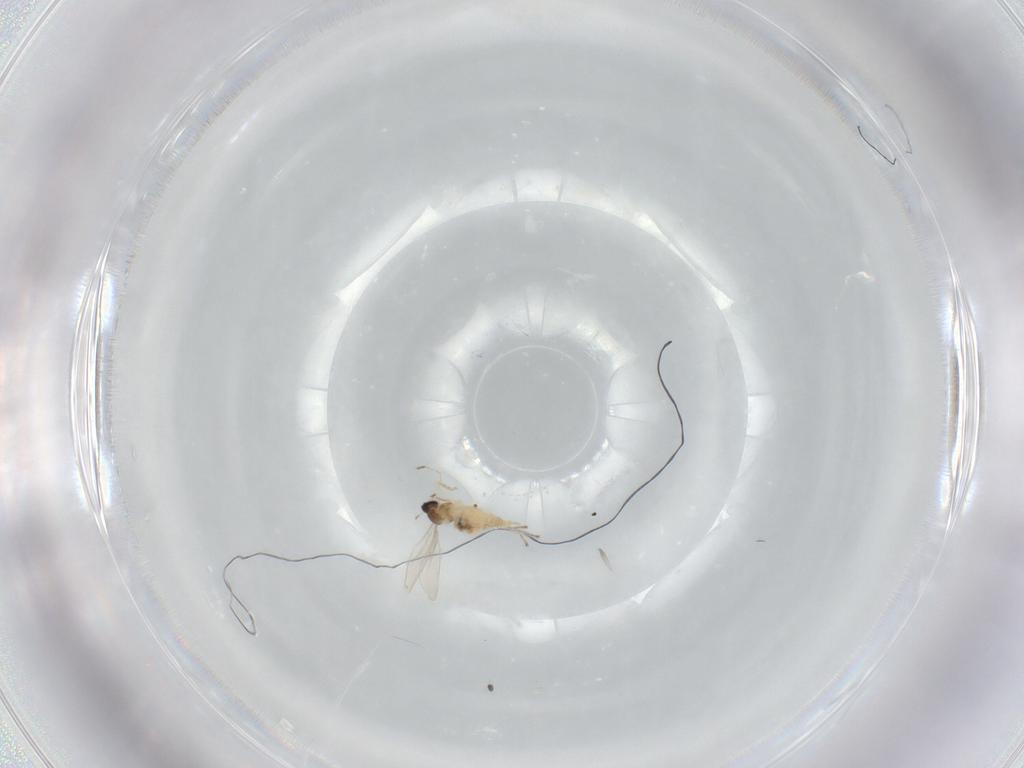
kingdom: Animalia
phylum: Arthropoda
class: Insecta
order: Diptera
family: Cecidomyiidae
